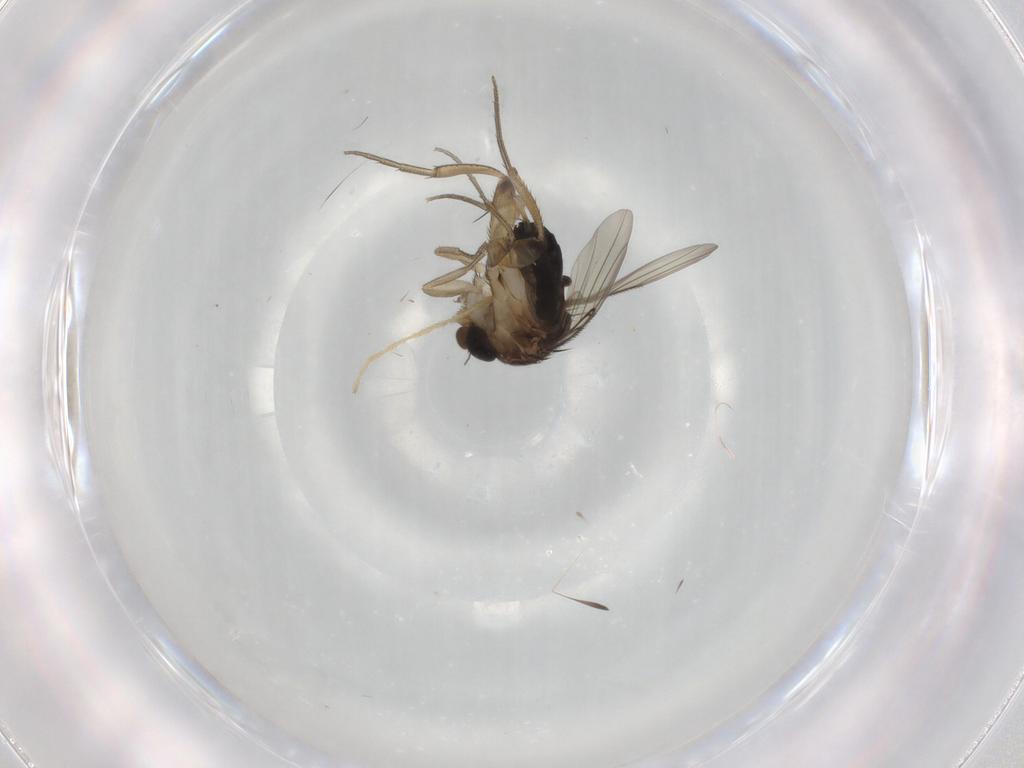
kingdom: Animalia
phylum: Arthropoda
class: Insecta
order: Diptera
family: Phoridae
